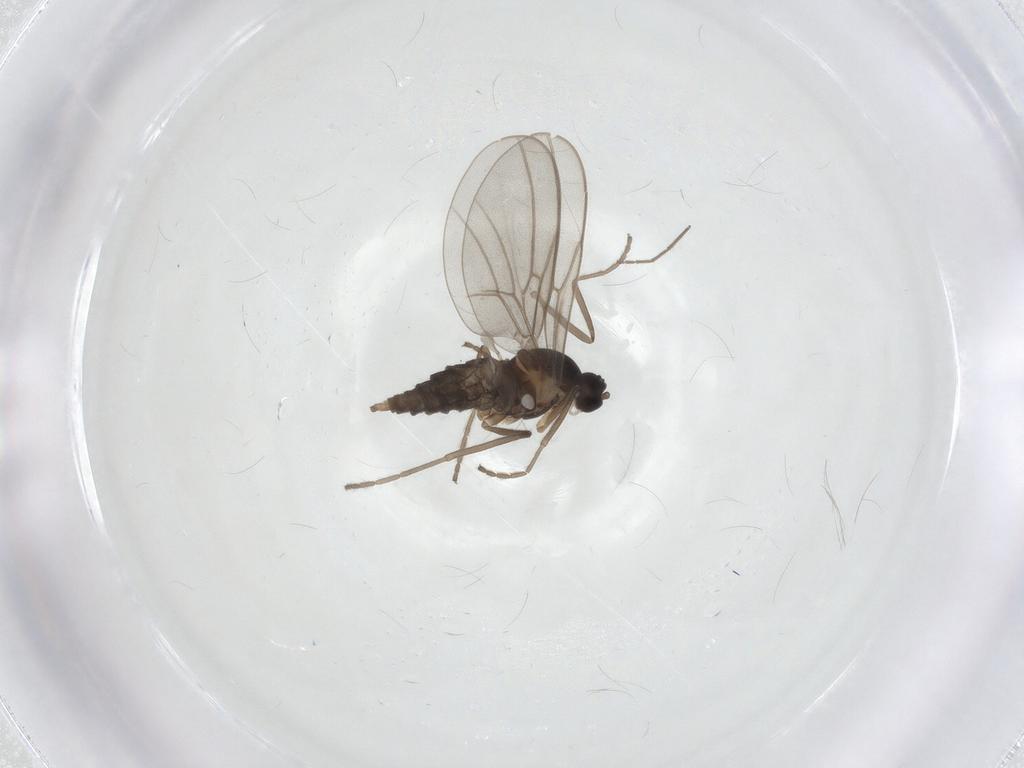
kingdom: Animalia
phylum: Arthropoda
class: Insecta
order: Diptera
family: Cecidomyiidae
